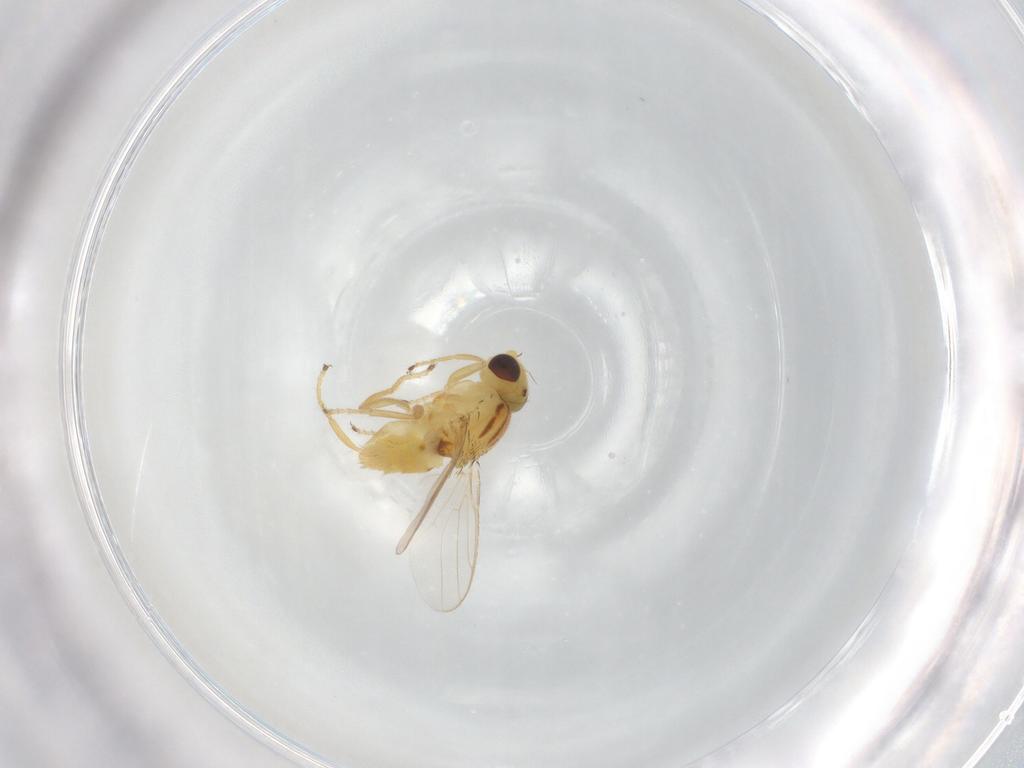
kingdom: Animalia
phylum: Arthropoda
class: Insecta
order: Diptera
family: Chloropidae
